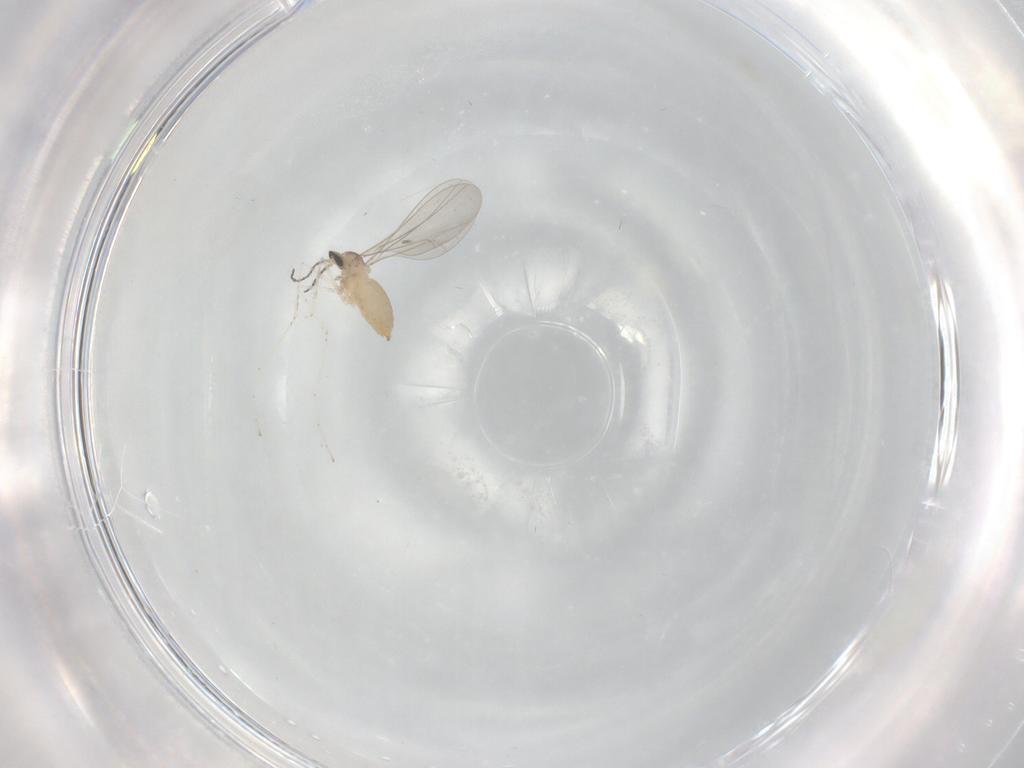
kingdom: Animalia
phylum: Arthropoda
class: Insecta
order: Diptera
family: Cecidomyiidae
